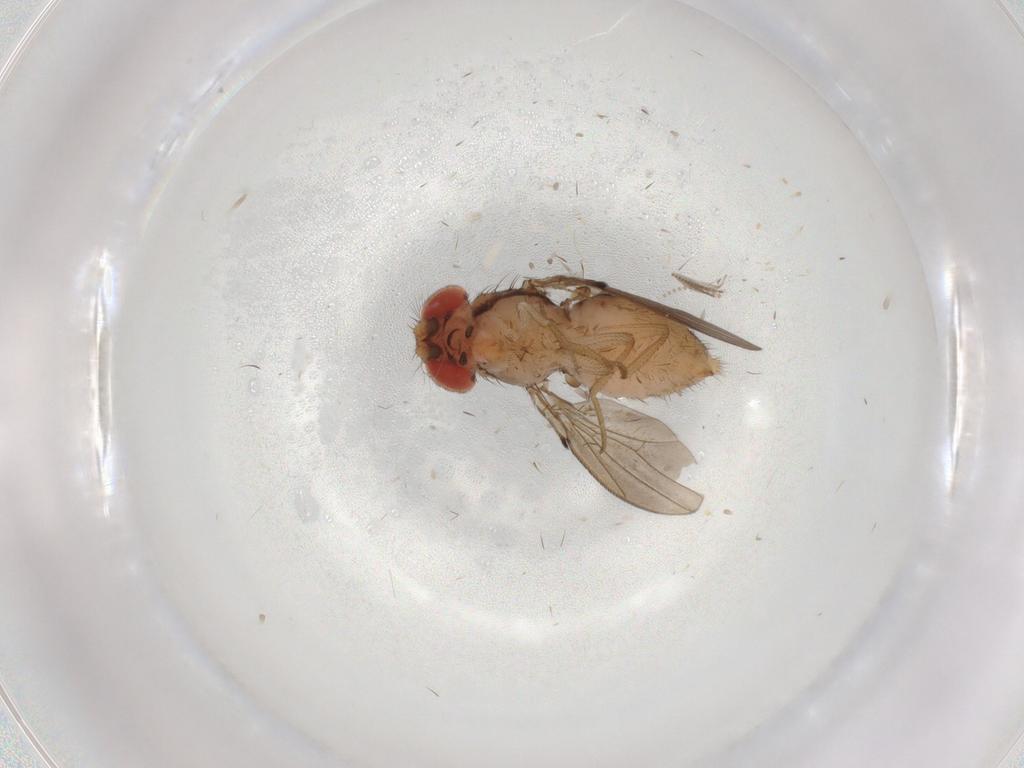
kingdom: Animalia
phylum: Arthropoda
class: Insecta
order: Diptera
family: Drosophilidae
